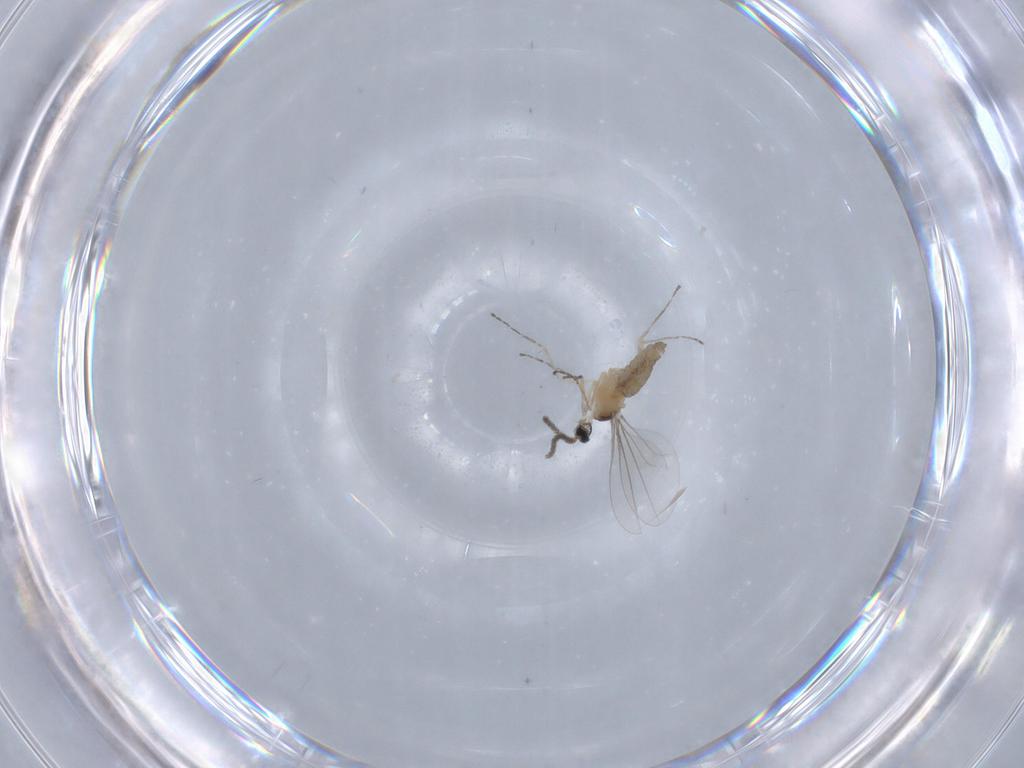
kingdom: Animalia
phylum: Arthropoda
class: Insecta
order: Diptera
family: Cecidomyiidae
